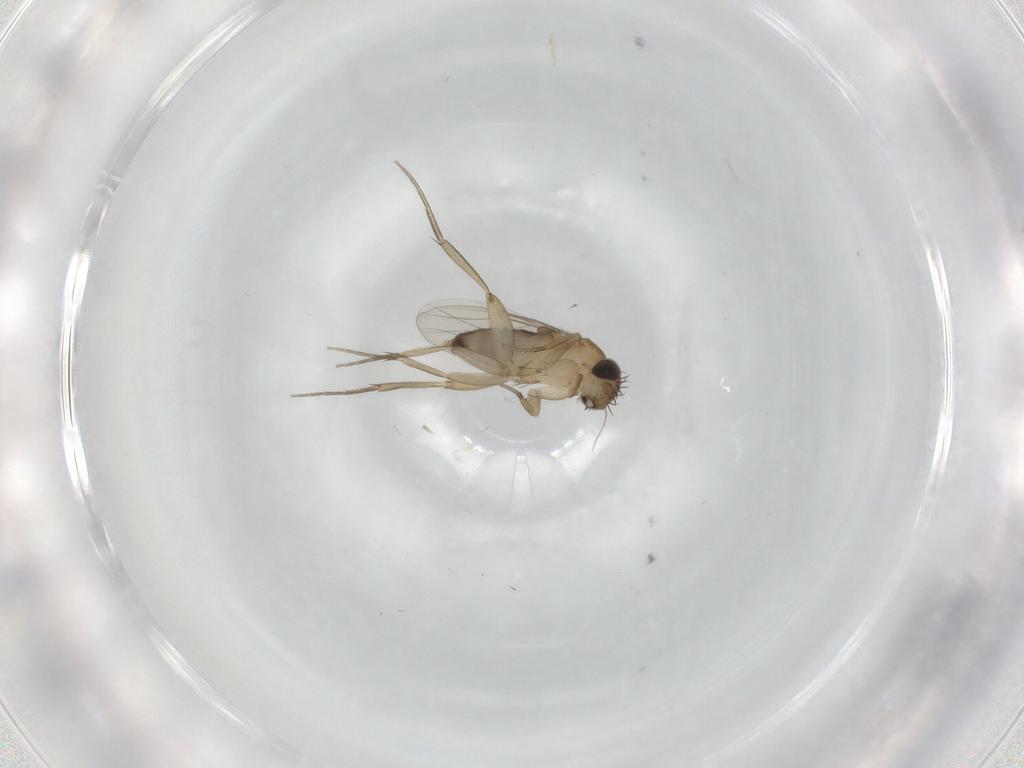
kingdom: Animalia
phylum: Arthropoda
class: Insecta
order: Diptera
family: Phoridae
